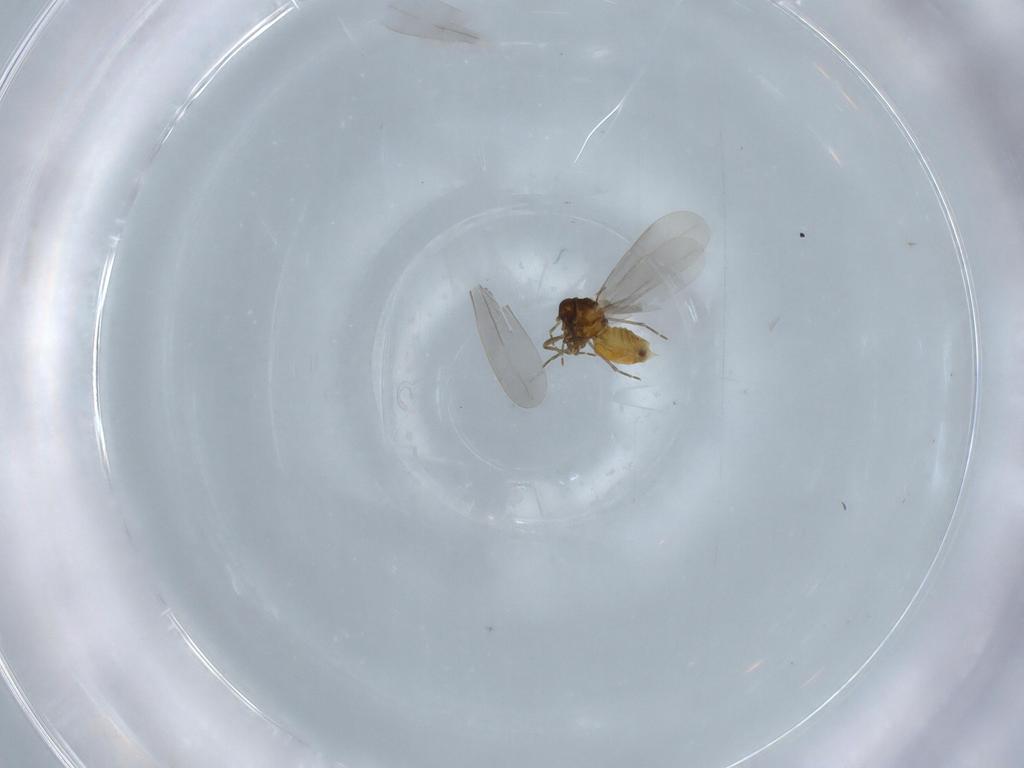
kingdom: Animalia
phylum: Arthropoda
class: Insecta
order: Hemiptera
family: Aleyrodidae
